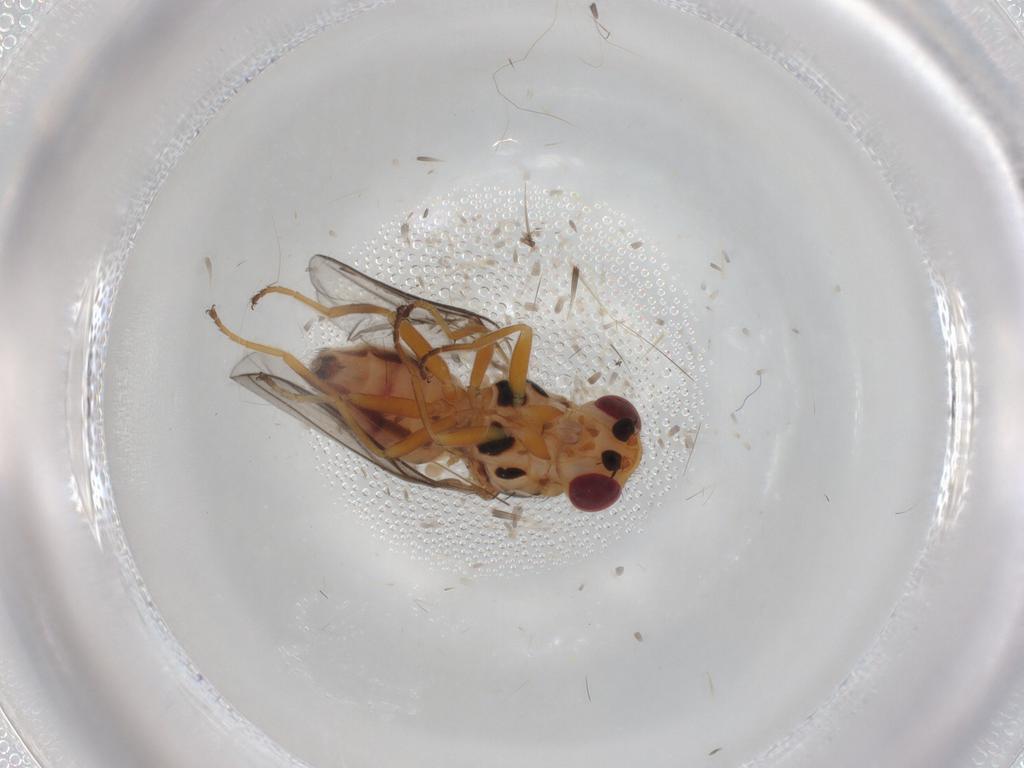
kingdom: Animalia
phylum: Arthropoda
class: Insecta
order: Diptera
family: Chloropidae
